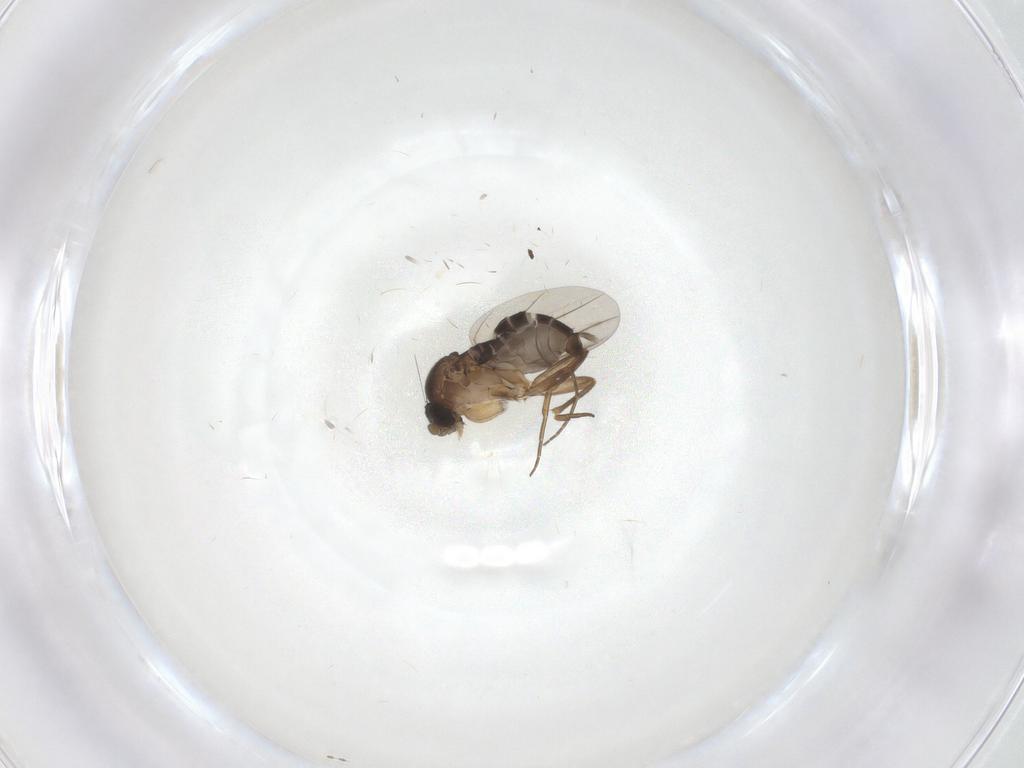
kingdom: Animalia
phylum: Arthropoda
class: Insecta
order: Diptera
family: Phoridae
